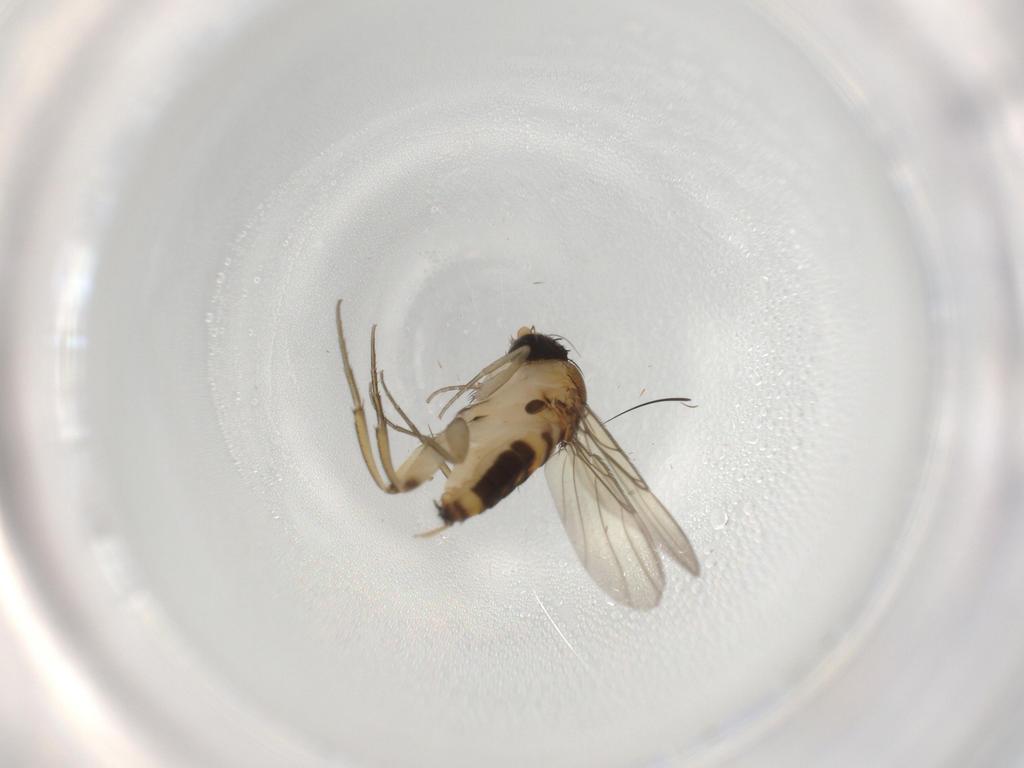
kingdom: Animalia
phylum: Arthropoda
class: Insecta
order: Diptera
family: Phoridae
